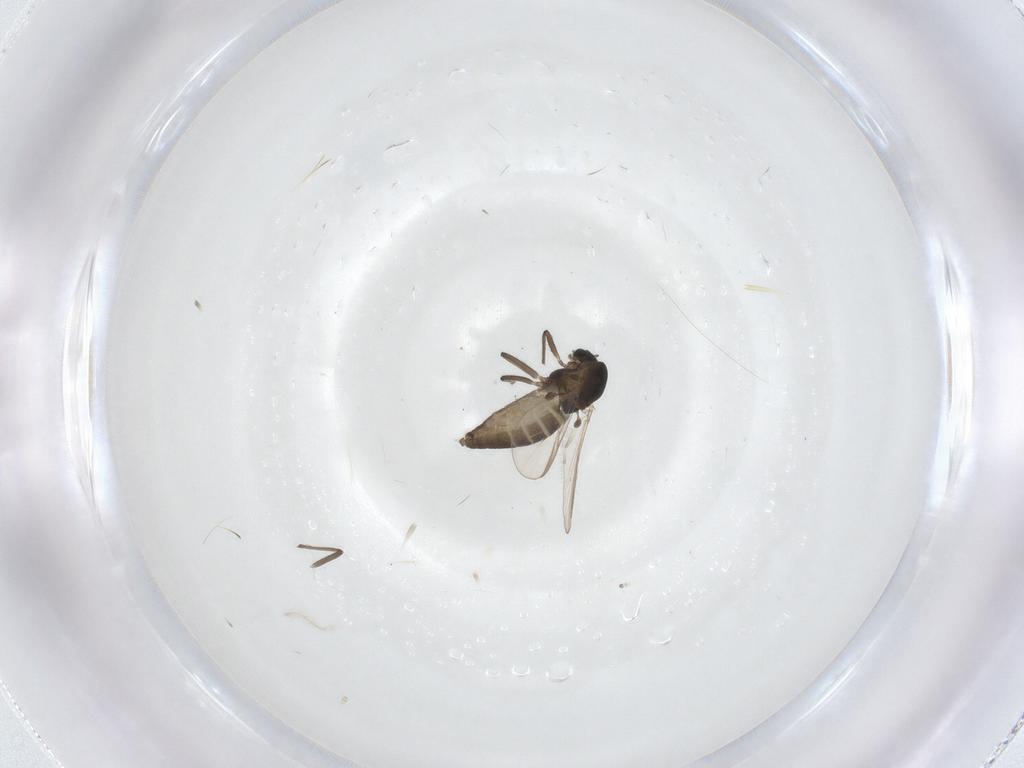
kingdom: Animalia
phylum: Arthropoda
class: Insecta
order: Diptera
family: Chironomidae
